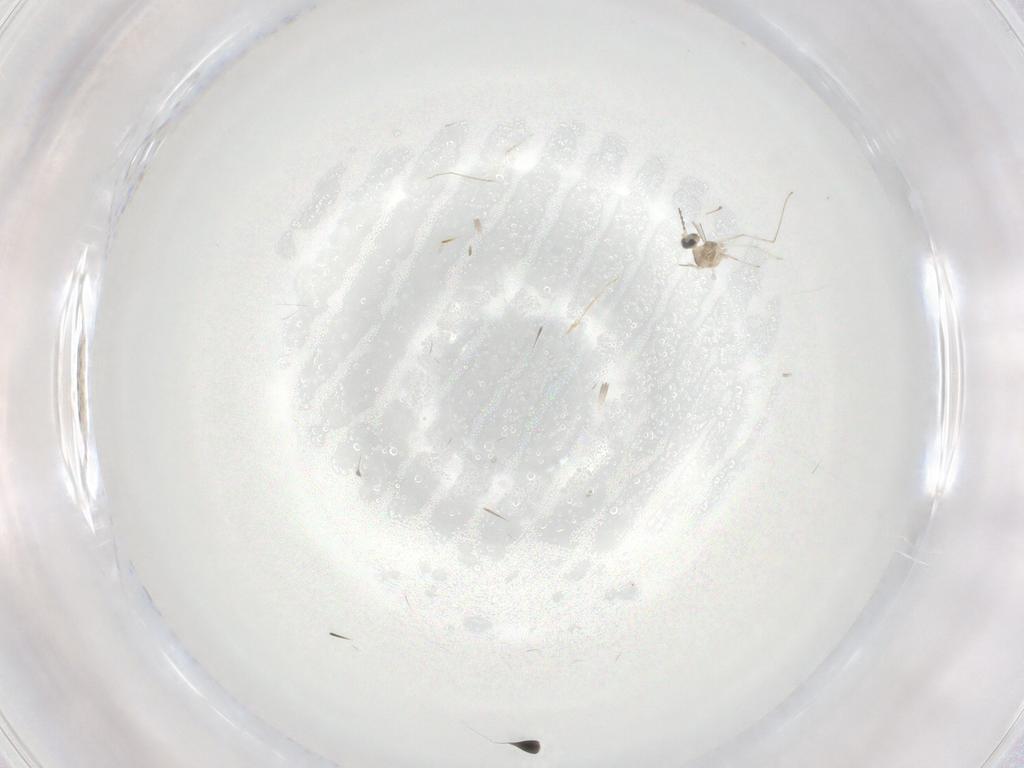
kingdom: Animalia
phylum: Arthropoda
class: Insecta
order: Diptera
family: Cecidomyiidae
